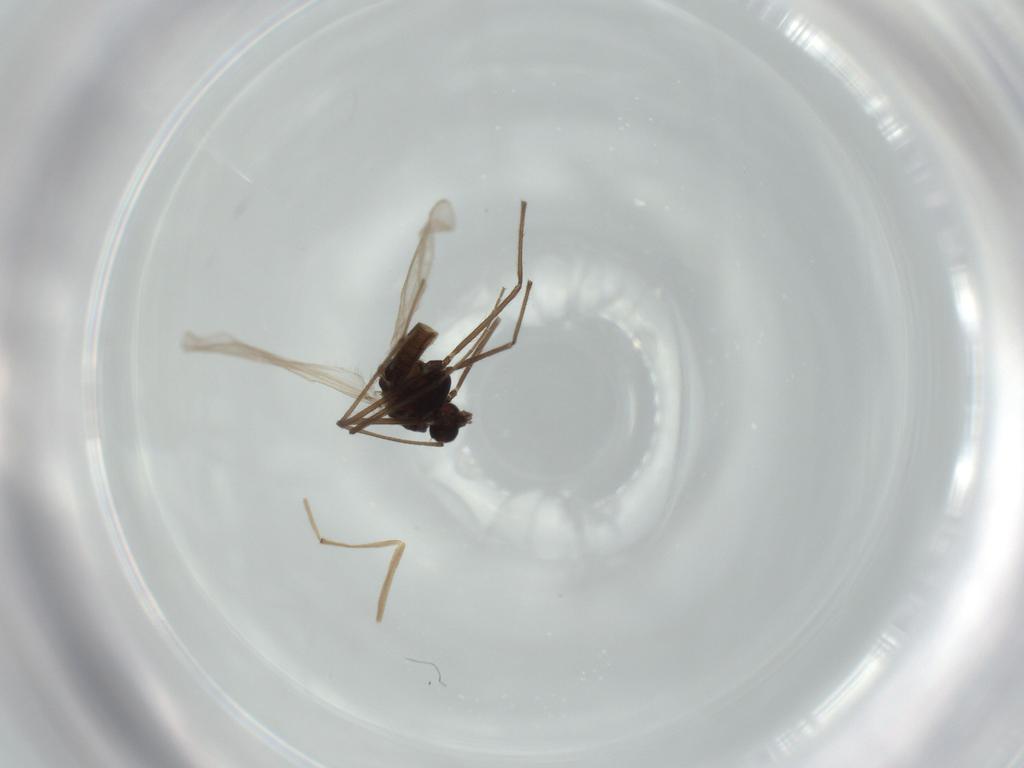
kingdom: Animalia
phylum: Arthropoda
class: Insecta
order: Diptera
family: Chironomidae
